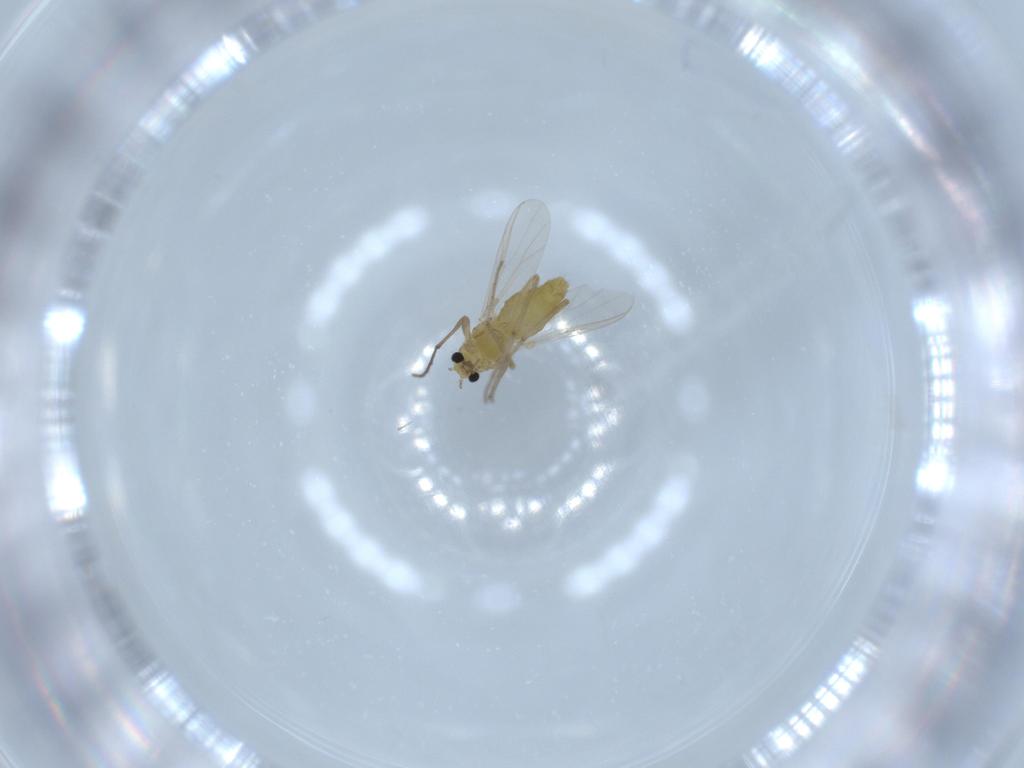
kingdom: Animalia
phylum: Arthropoda
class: Insecta
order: Diptera
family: Chironomidae
